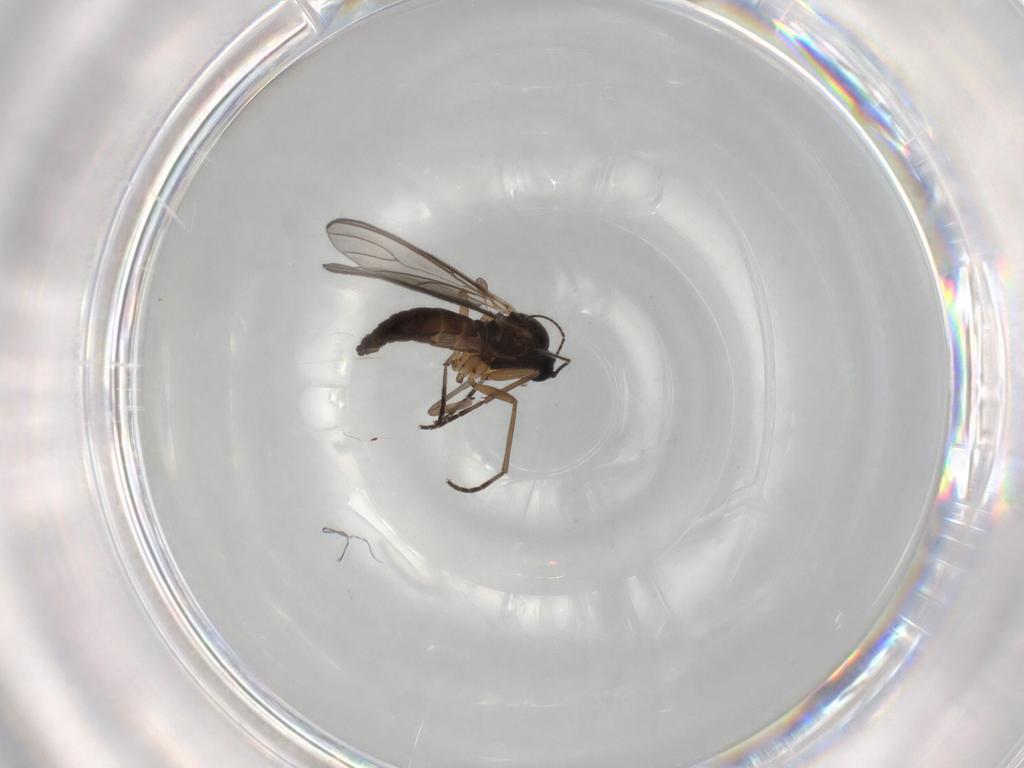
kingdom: Animalia
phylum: Arthropoda
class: Insecta
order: Diptera
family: Sciaridae
